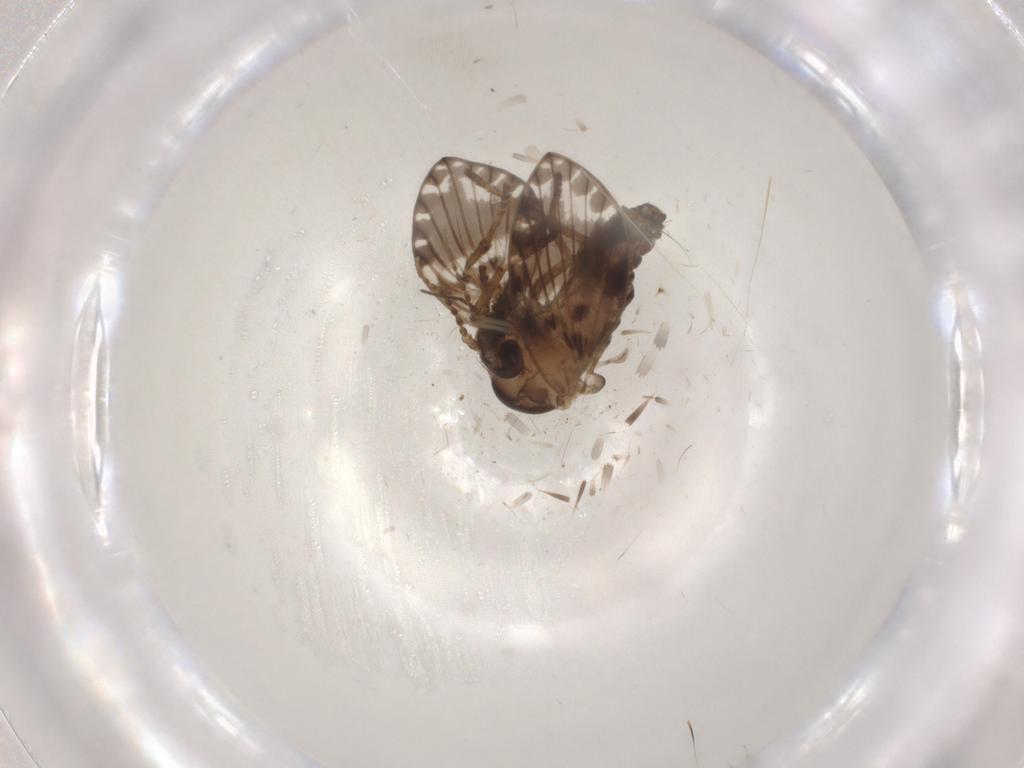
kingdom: Animalia
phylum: Arthropoda
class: Insecta
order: Diptera
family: Psychodidae
